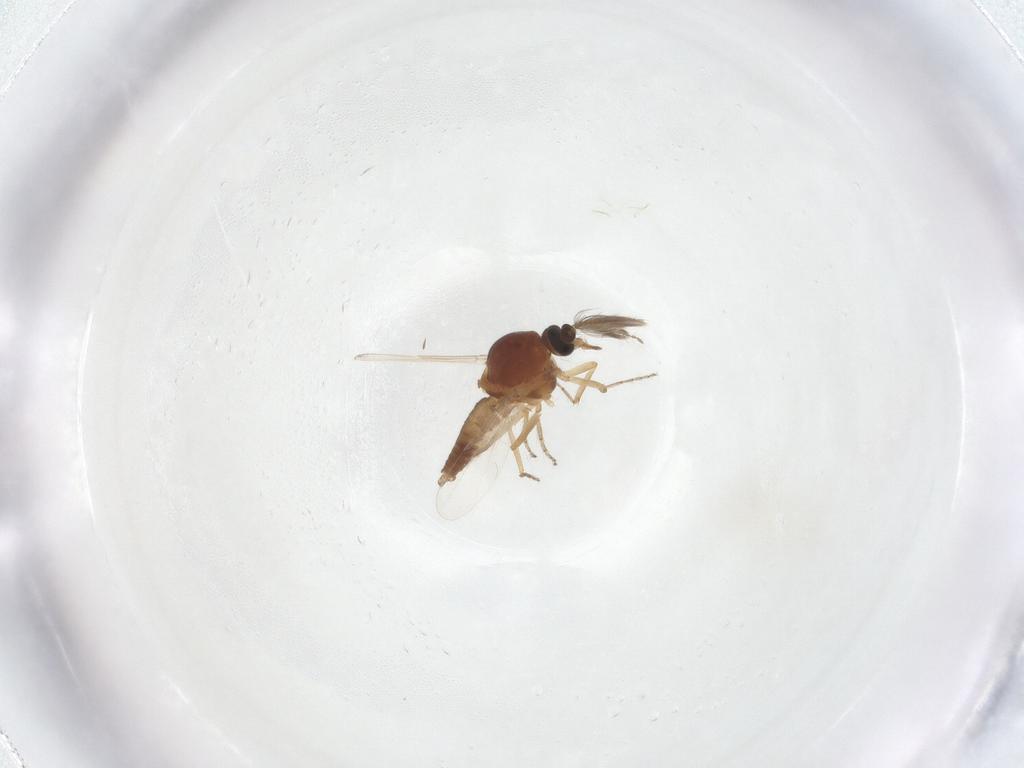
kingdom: Animalia
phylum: Arthropoda
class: Insecta
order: Diptera
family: Ceratopogonidae
